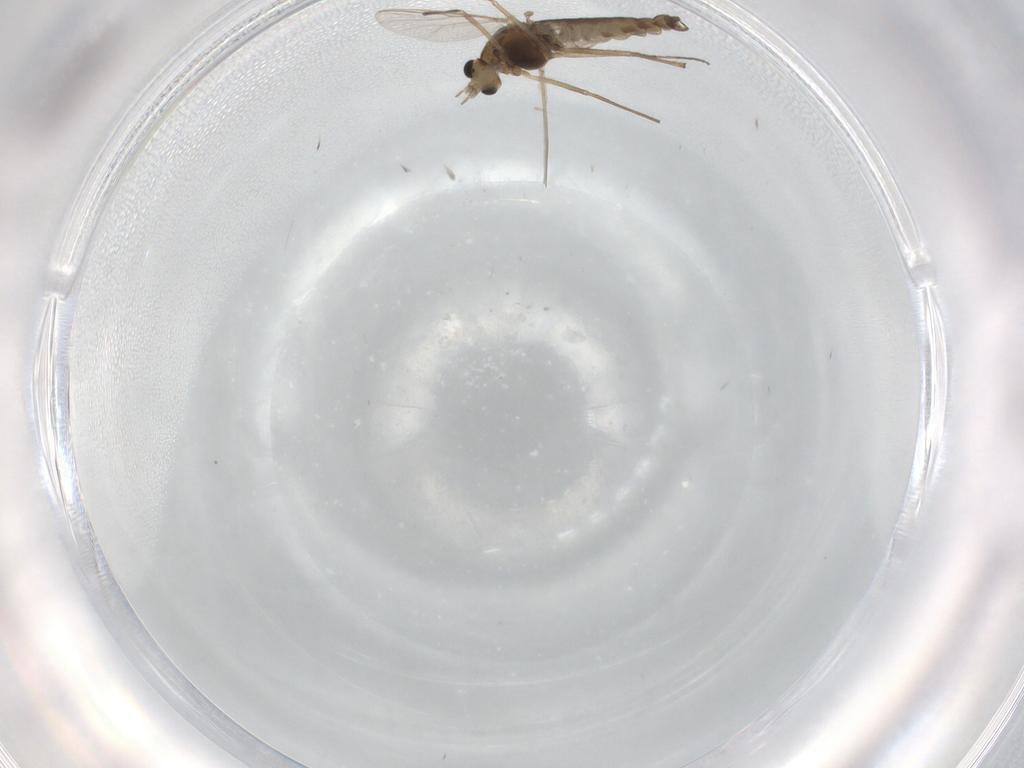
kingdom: Animalia
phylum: Arthropoda
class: Insecta
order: Diptera
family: Chironomidae
